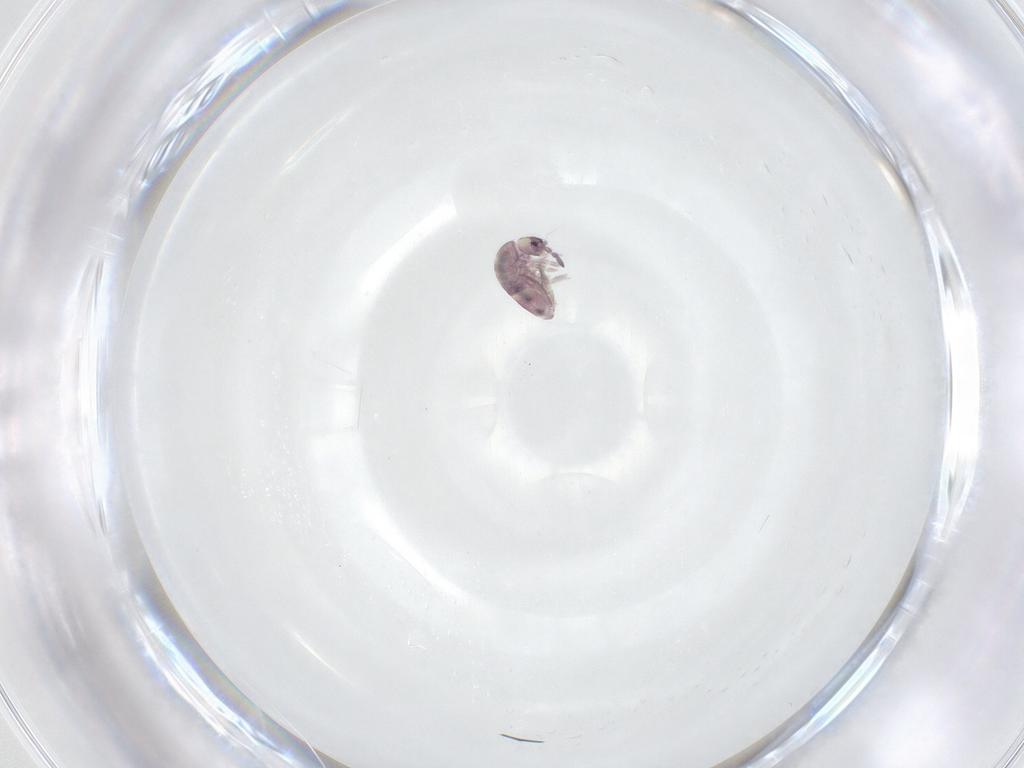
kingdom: Animalia
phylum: Arthropoda
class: Collembola
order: Entomobryomorpha
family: Entomobryidae
